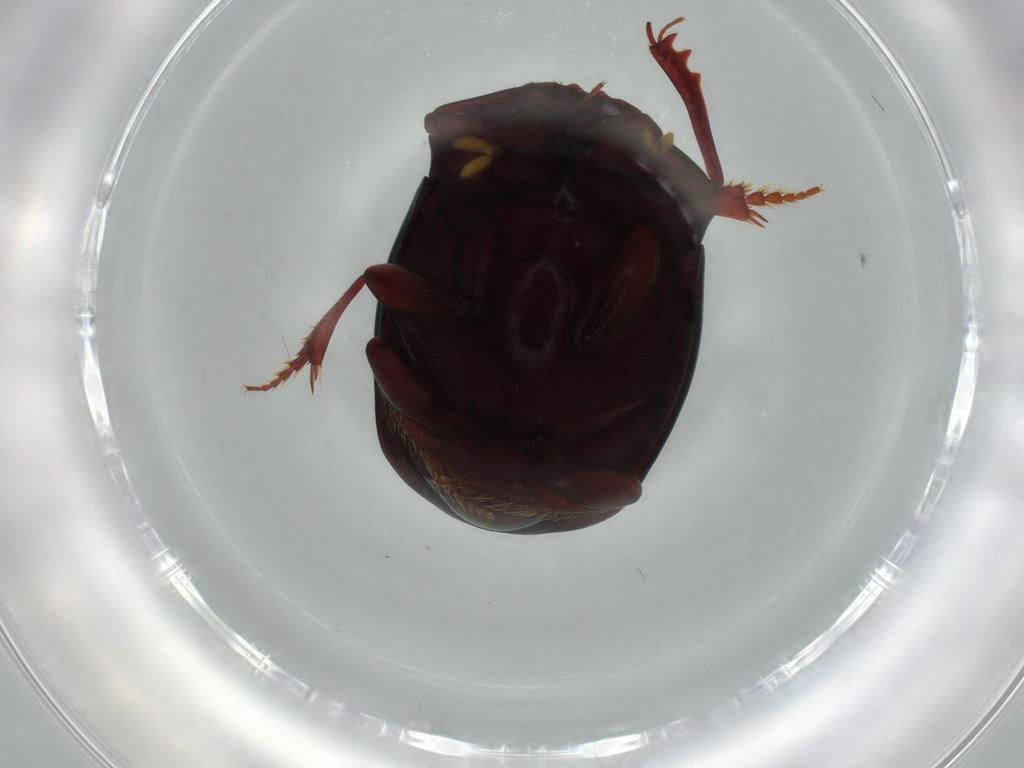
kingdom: Animalia
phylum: Arthropoda
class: Insecta
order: Coleoptera
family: Scarabaeidae
